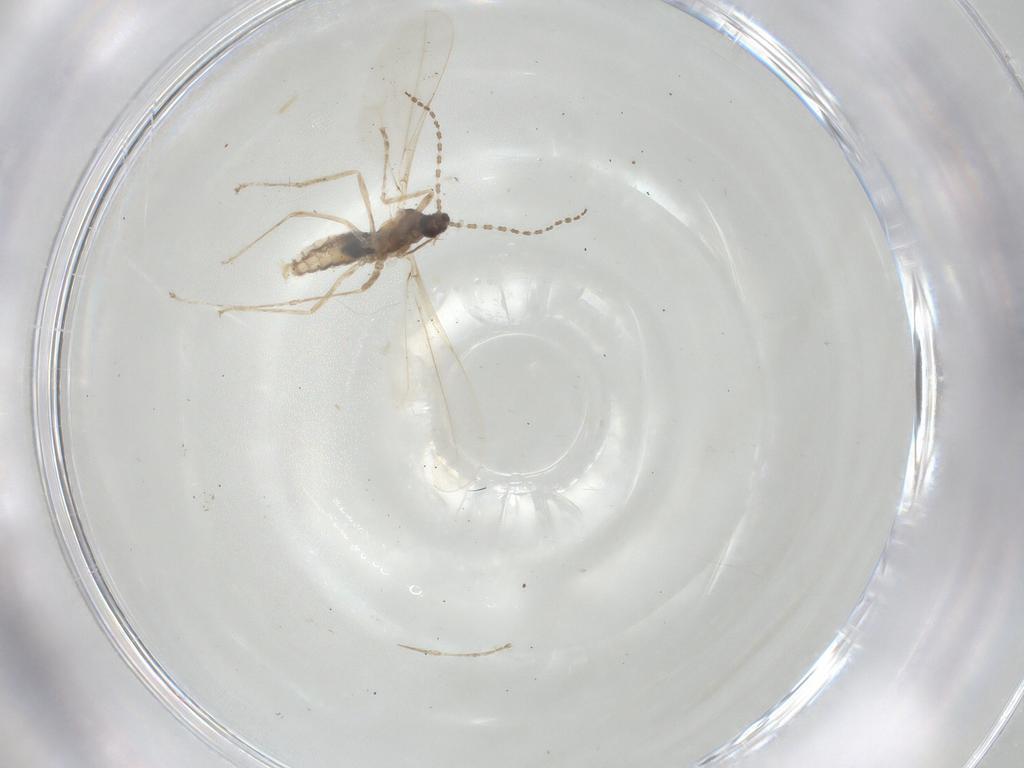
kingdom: Animalia
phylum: Arthropoda
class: Insecta
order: Diptera
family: Cecidomyiidae
